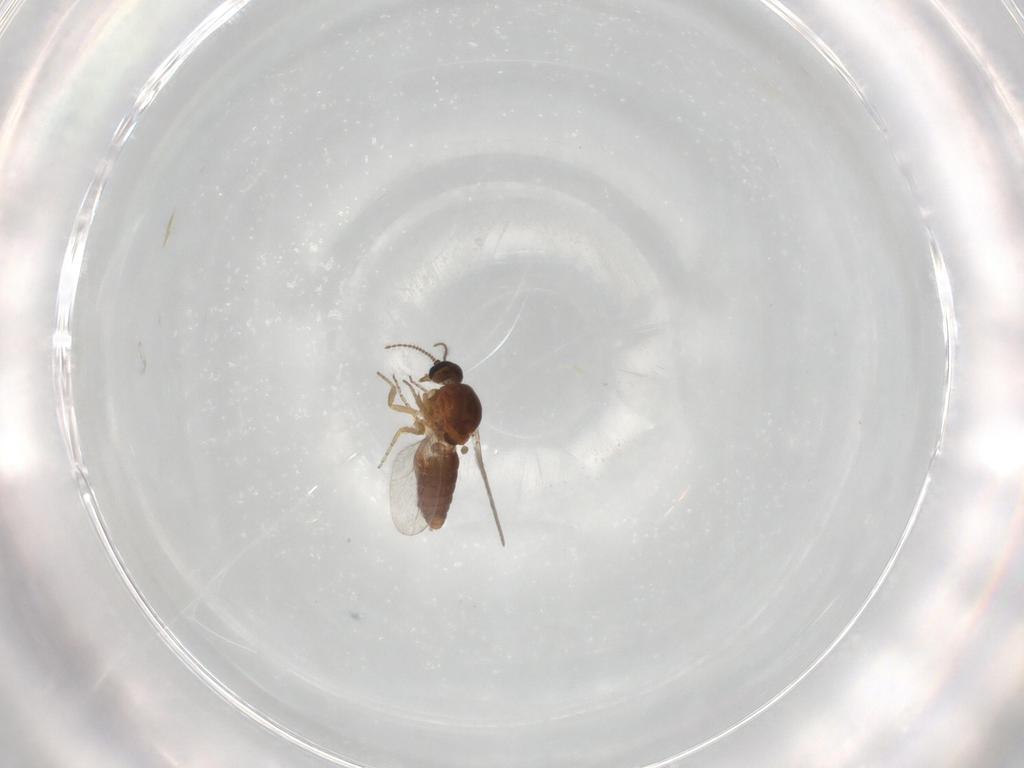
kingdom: Animalia
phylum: Arthropoda
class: Insecta
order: Diptera
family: Ceratopogonidae
